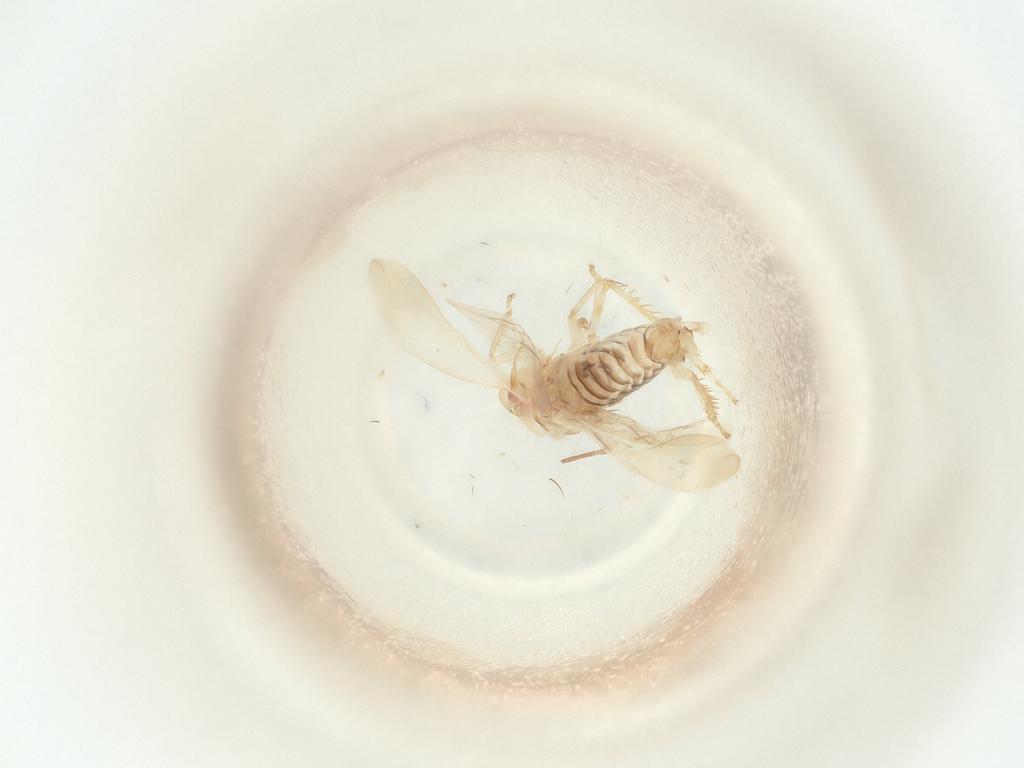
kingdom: Animalia
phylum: Arthropoda
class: Insecta
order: Hemiptera
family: Cicadellidae
